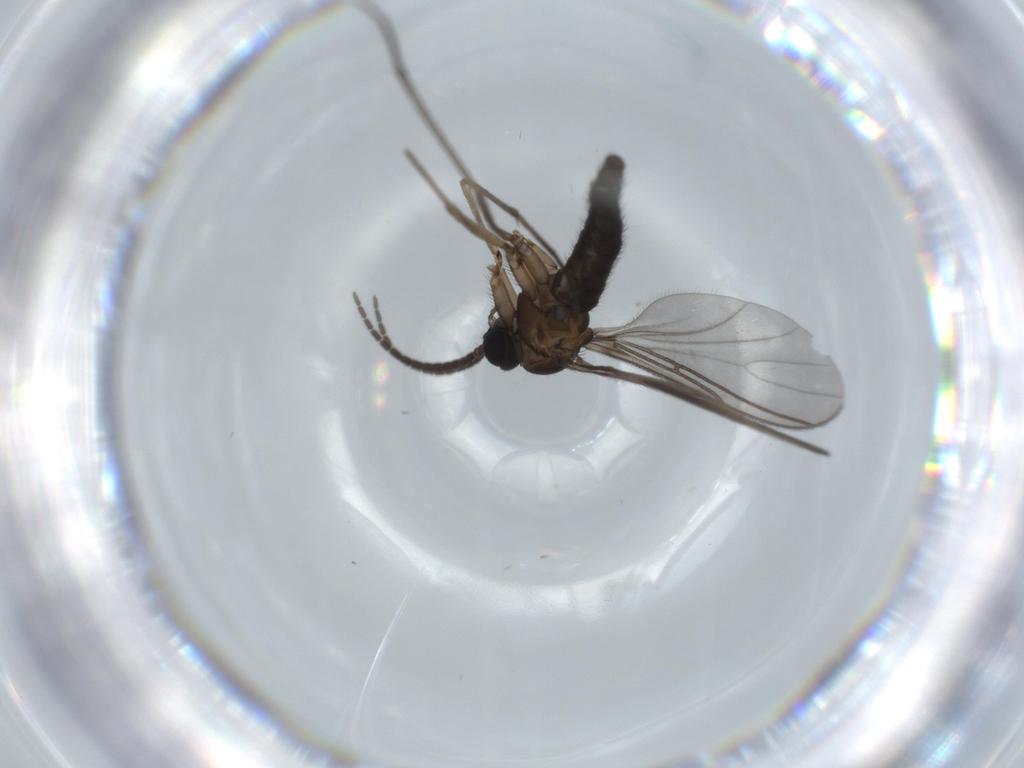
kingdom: Animalia
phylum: Arthropoda
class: Insecta
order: Diptera
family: Sciaridae
